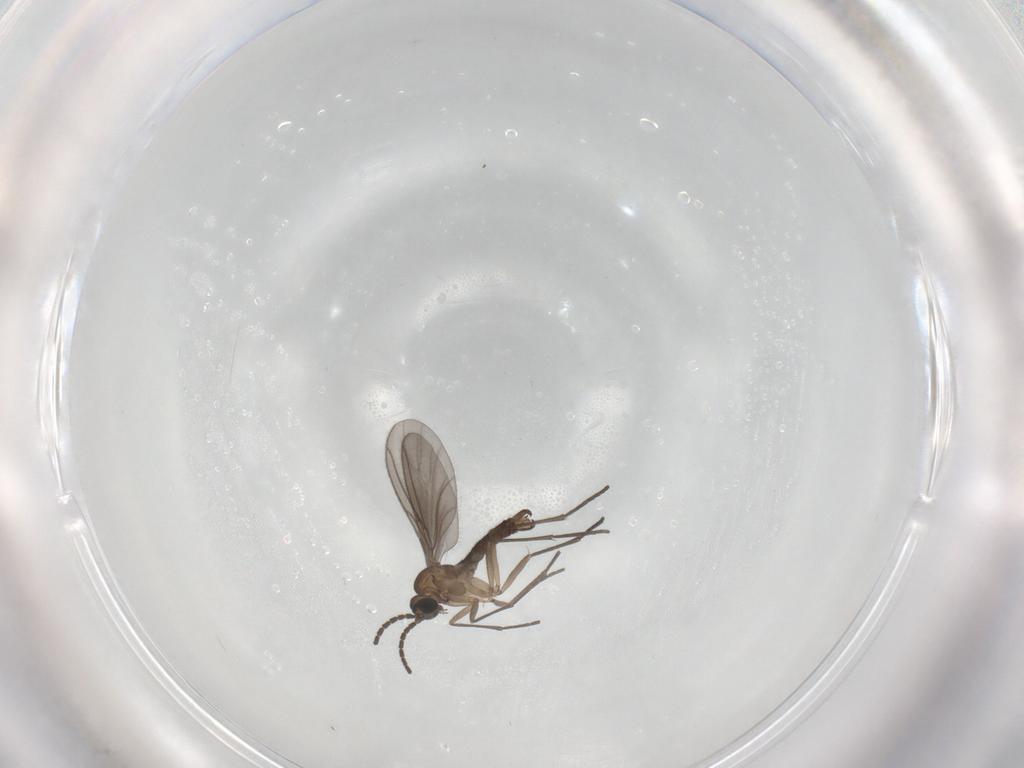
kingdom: Animalia
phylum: Arthropoda
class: Insecta
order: Diptera
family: Sciaridae
